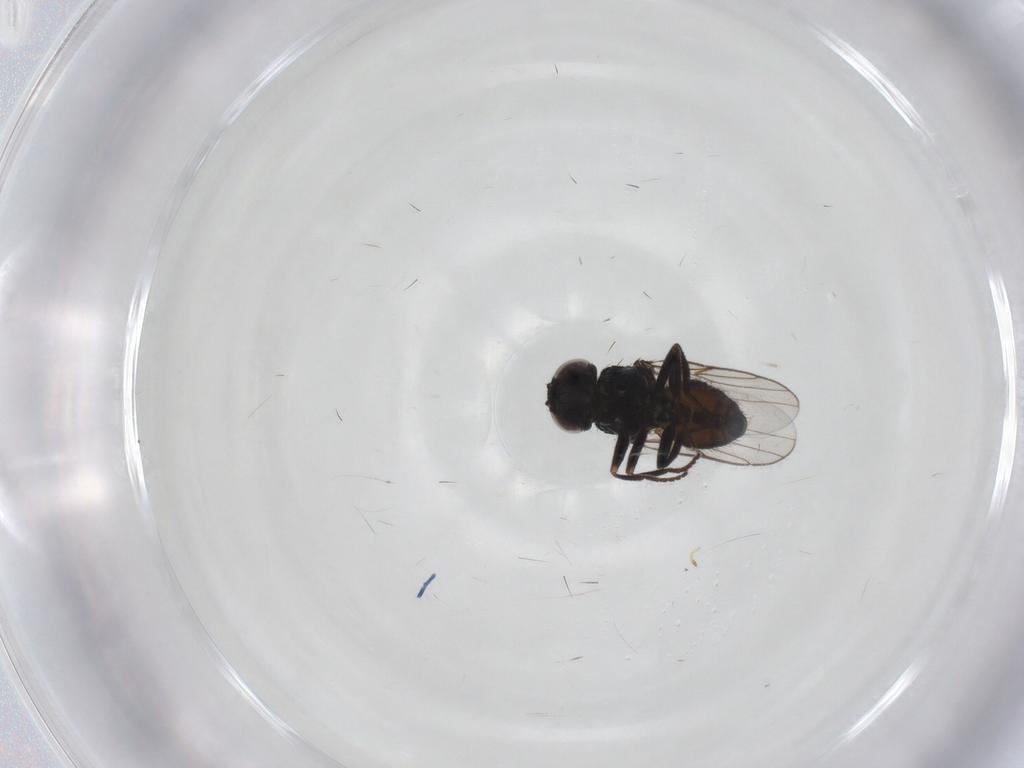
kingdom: Animalia
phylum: Arthropoda
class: Insecta
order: Diptera
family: Chloropidae
